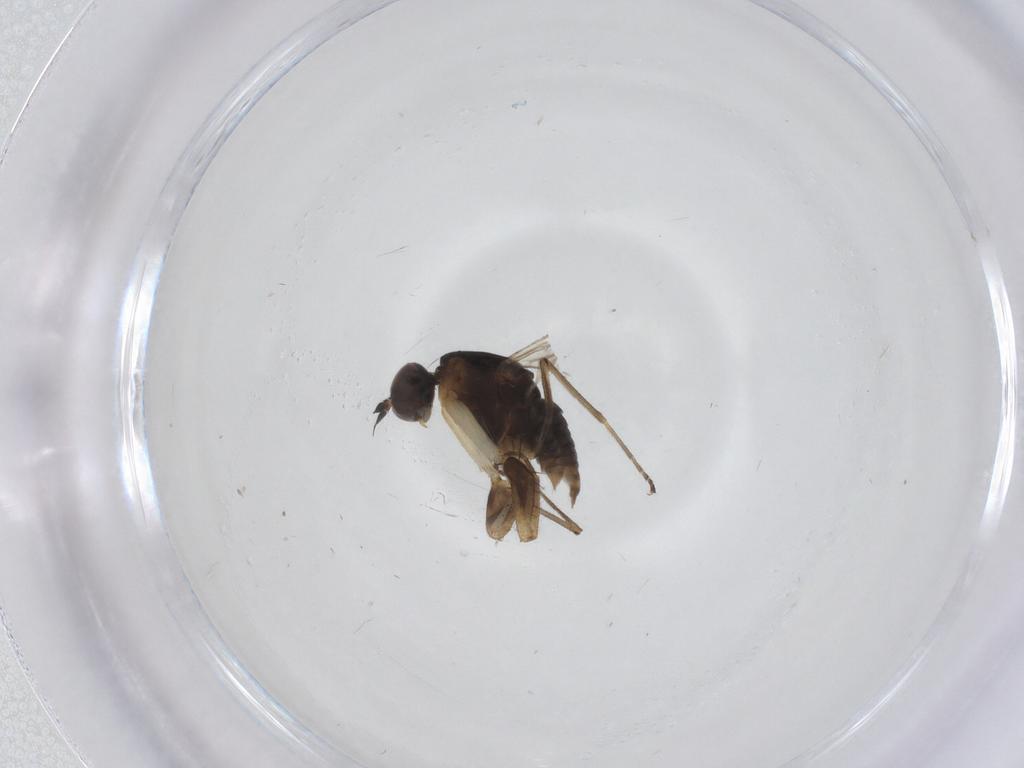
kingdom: Animalia
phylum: Arthropoda
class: Insecta
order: Diptera
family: Empididae
